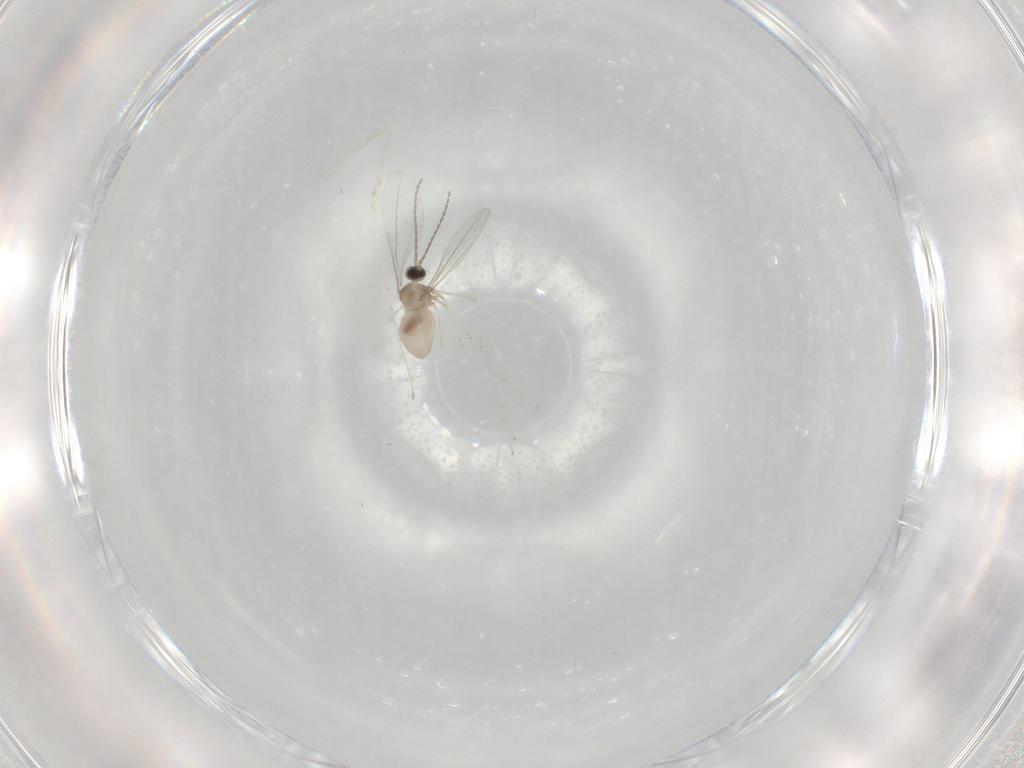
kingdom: Animalia
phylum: Arthropoda
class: Insecta
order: Diptera
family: Cecidomyiidae
